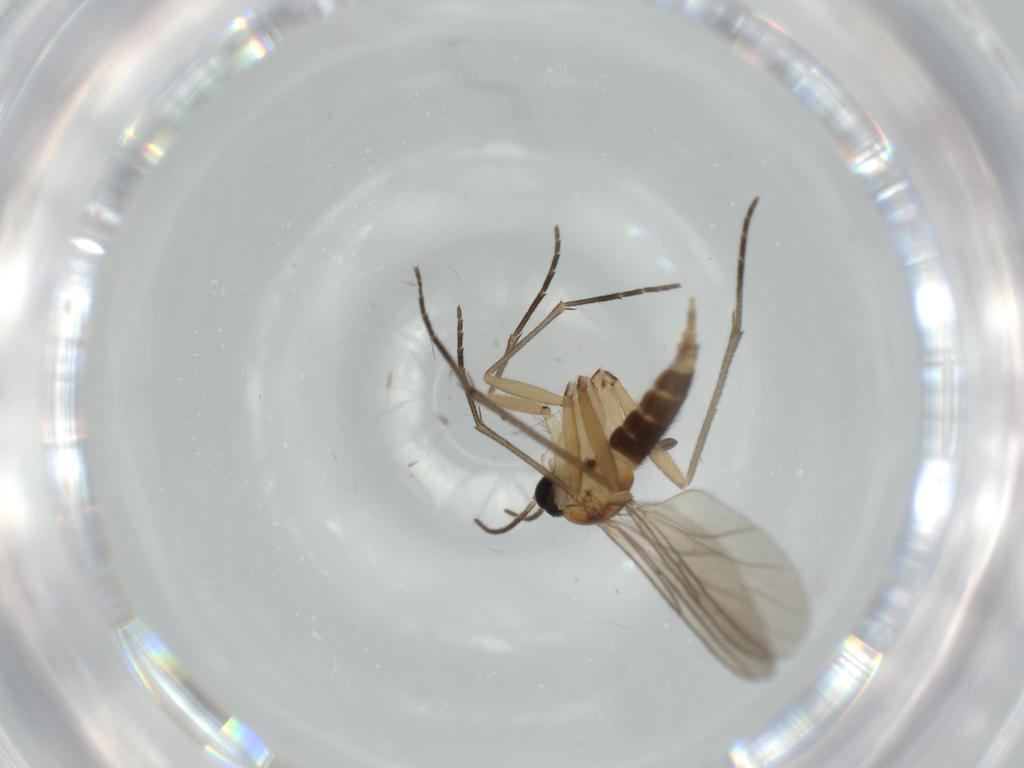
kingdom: Animalia
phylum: Arthropoda
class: Insecta
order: Diptera
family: Sciaridae
